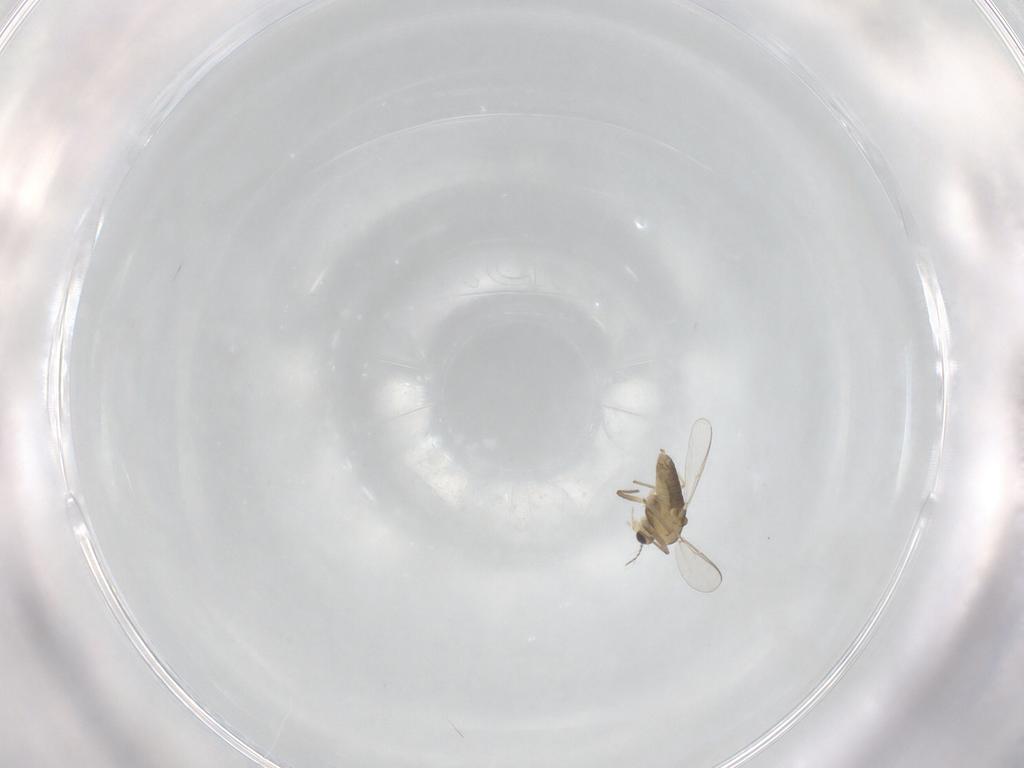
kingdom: Animalia
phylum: Arthropoda
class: Insecta
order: Diptera
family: Chironomidae
